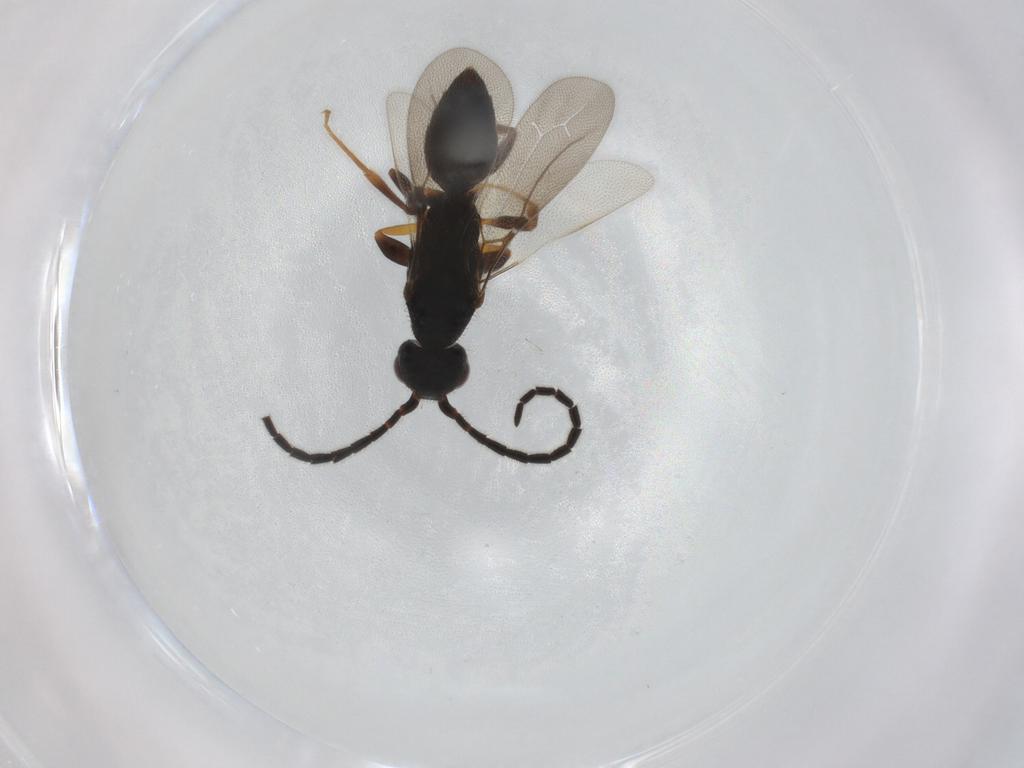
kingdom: Animalia
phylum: Arthropoda
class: Insecta
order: Hymenoptera
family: Bethylidae
